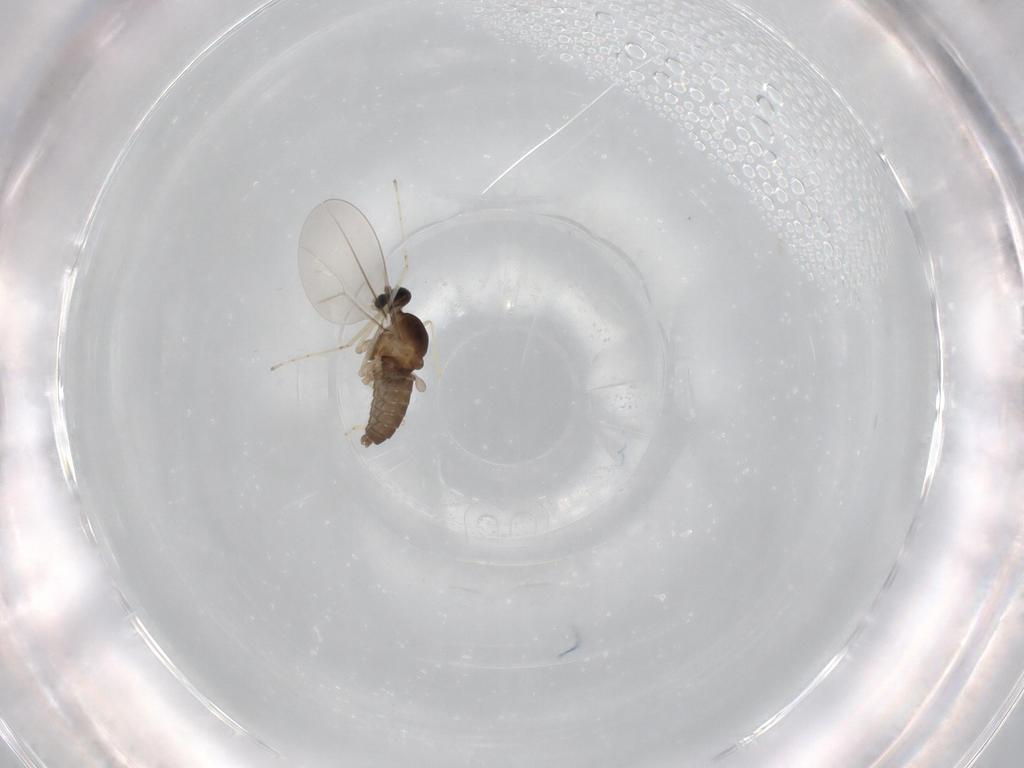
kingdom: Animalia
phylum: Arthropoda
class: Insecta
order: Diptera
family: Cecidomyiidae
